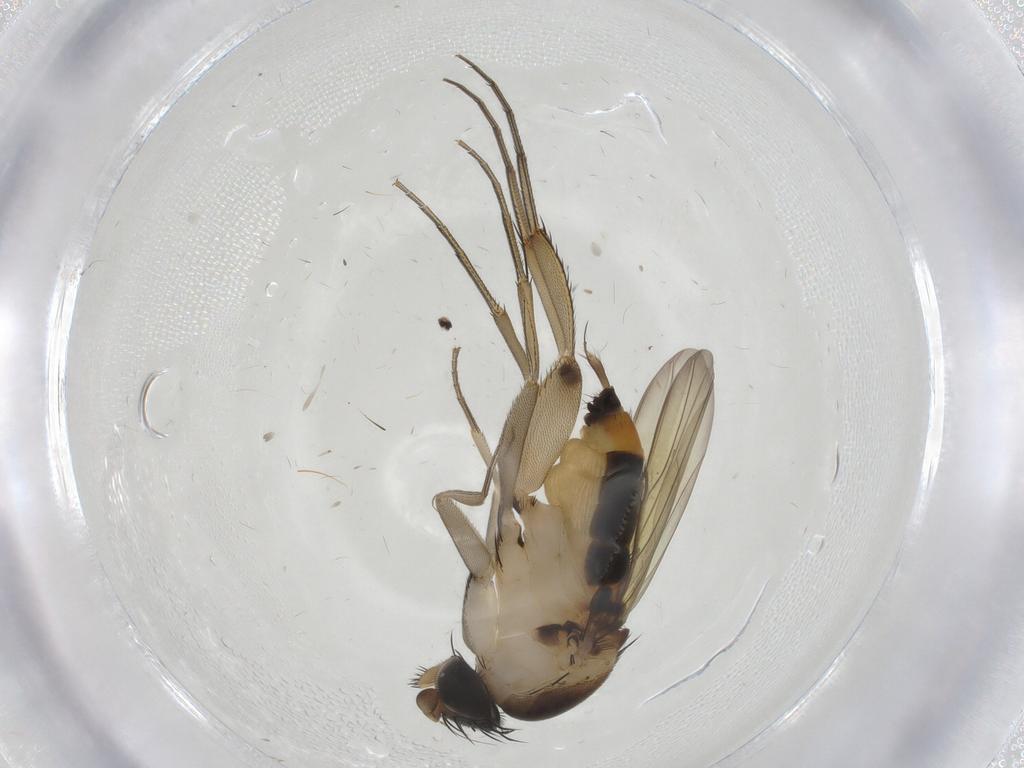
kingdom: Animalia
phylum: Arthropoda
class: Insecta
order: Diptera
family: Phoridae
